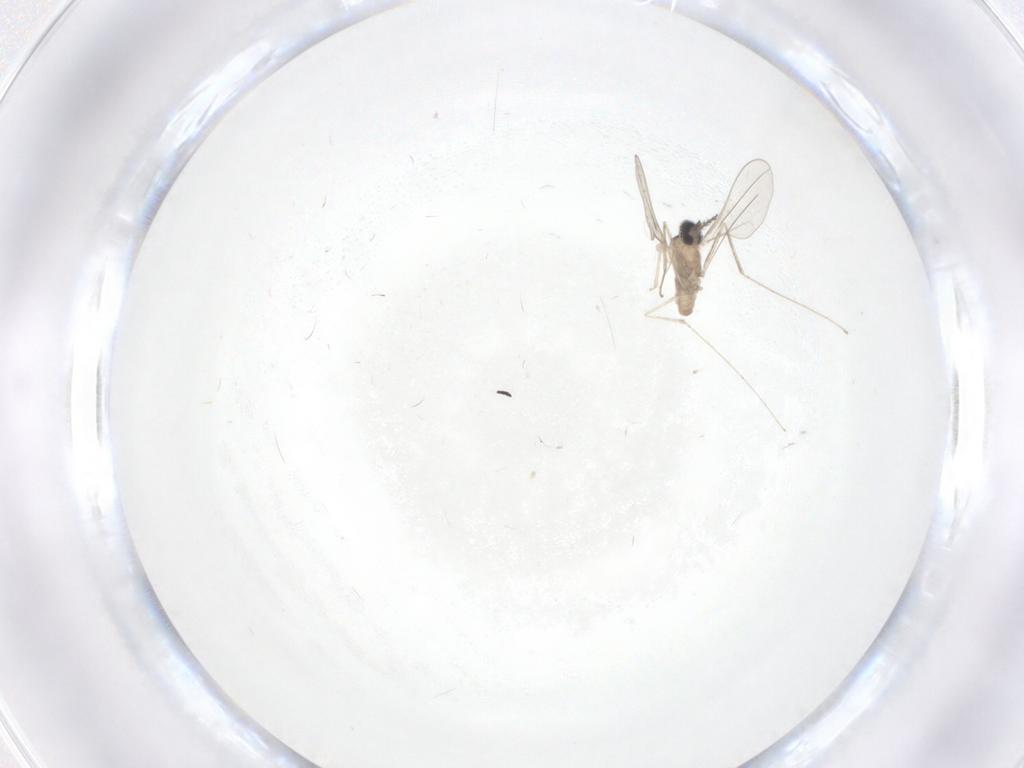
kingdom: Animalia
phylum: Arthropoda
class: Insecta
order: Diptera
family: Cecidomyiidae
